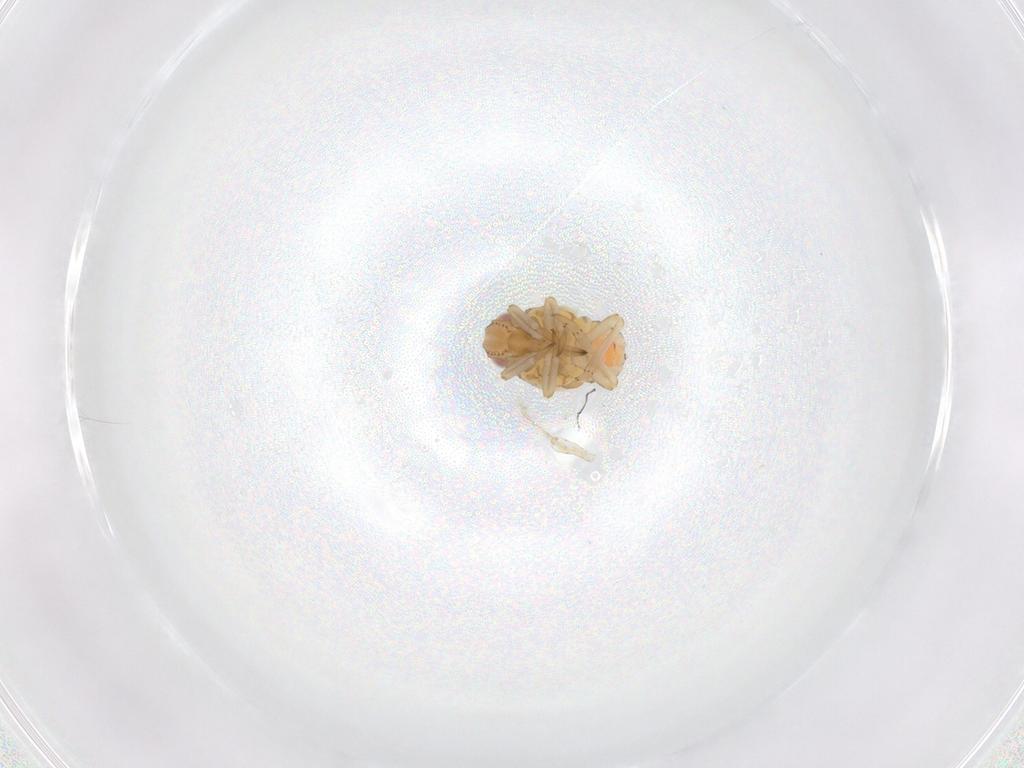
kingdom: Animalia
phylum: Arthropoda
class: Insecta
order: Hemiptera
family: Tropiduchidae
